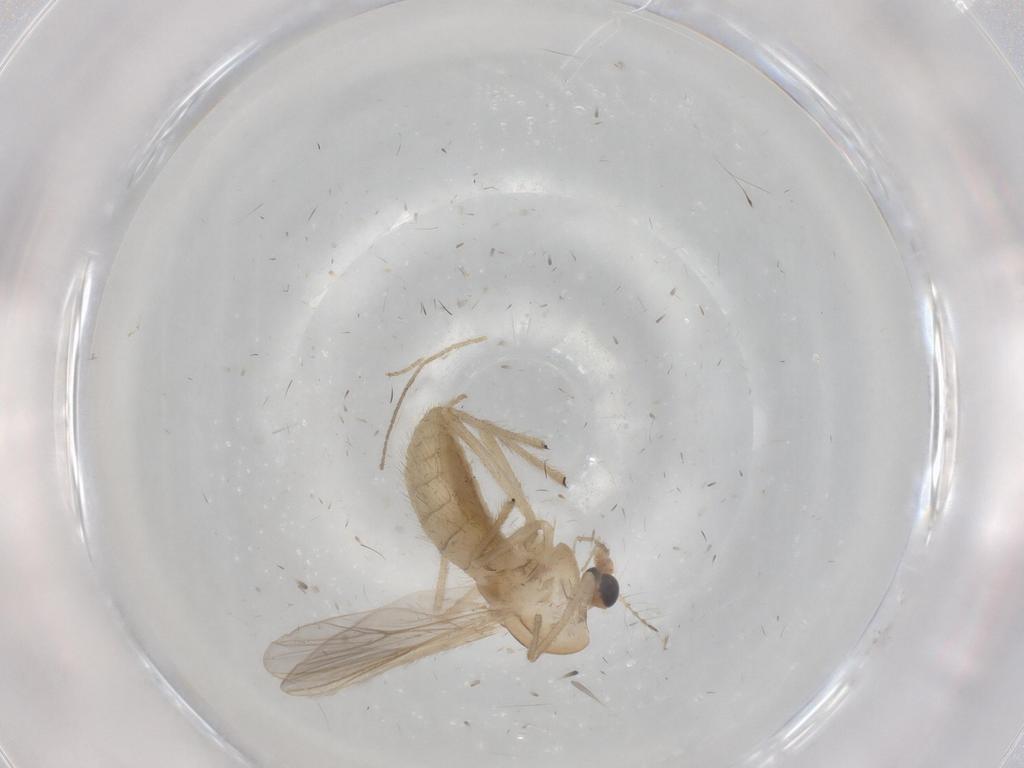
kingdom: Animalia
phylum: Arthropoda
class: Insecta
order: Diptera
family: Chironomidae
